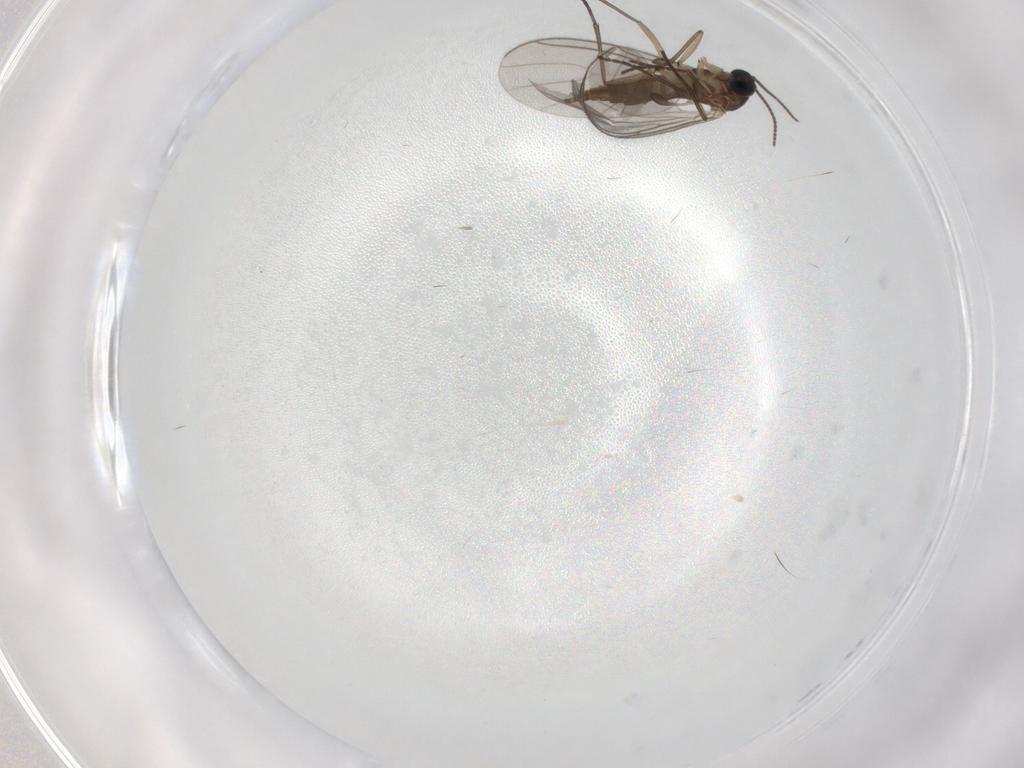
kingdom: Animalia
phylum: Arthropoda
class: Insecta
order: Diptera
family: Sciaridae
